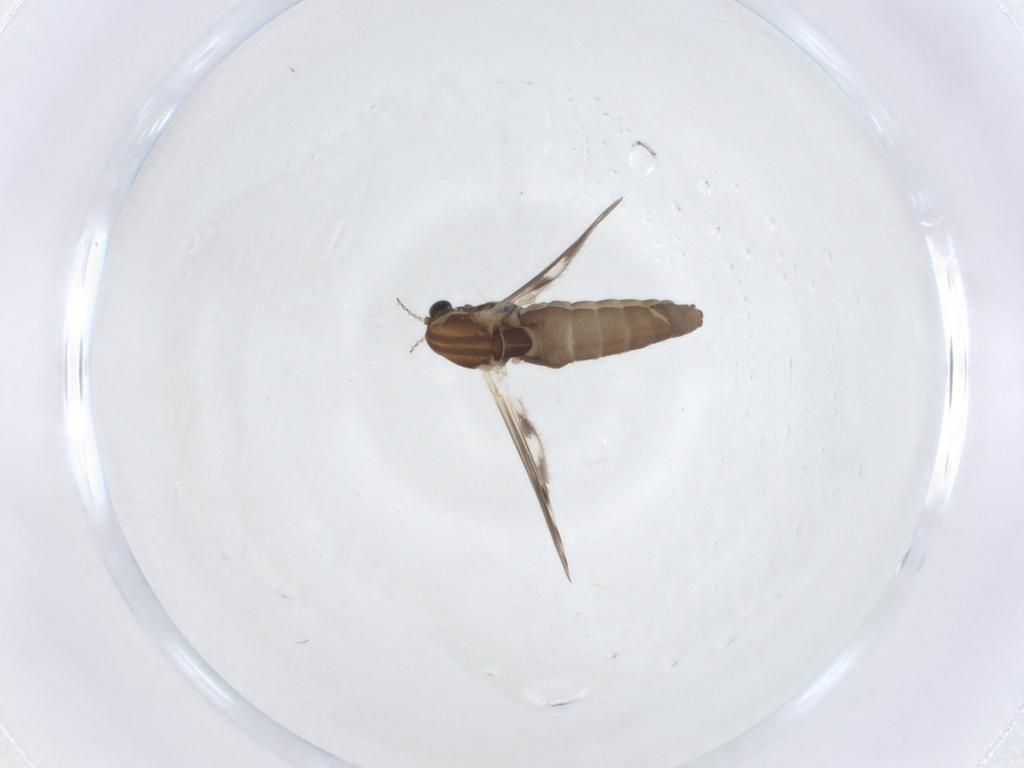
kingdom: Animalia
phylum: Arthropoda
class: Insecta
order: Diptera
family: Chironomidae
